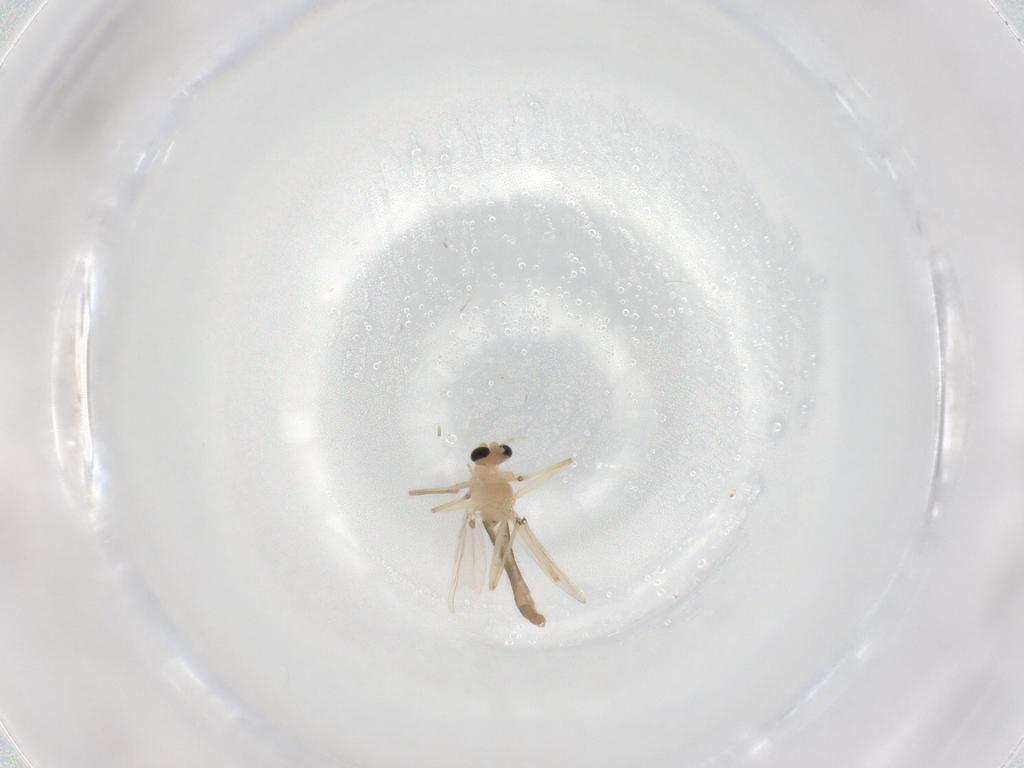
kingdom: Animalia
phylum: Arthropoda
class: Insecta
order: Diptera
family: Chironomidae
